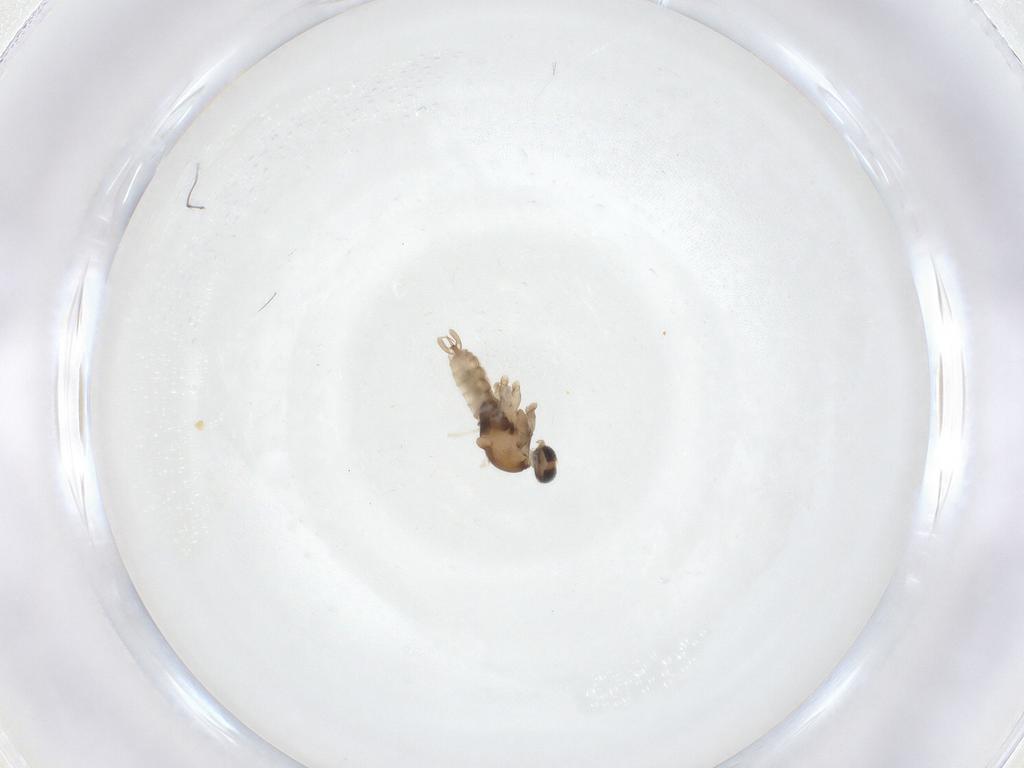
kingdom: Animalia
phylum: Arthropoda
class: Insecta
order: Diptera
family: Cecidomyiidae
